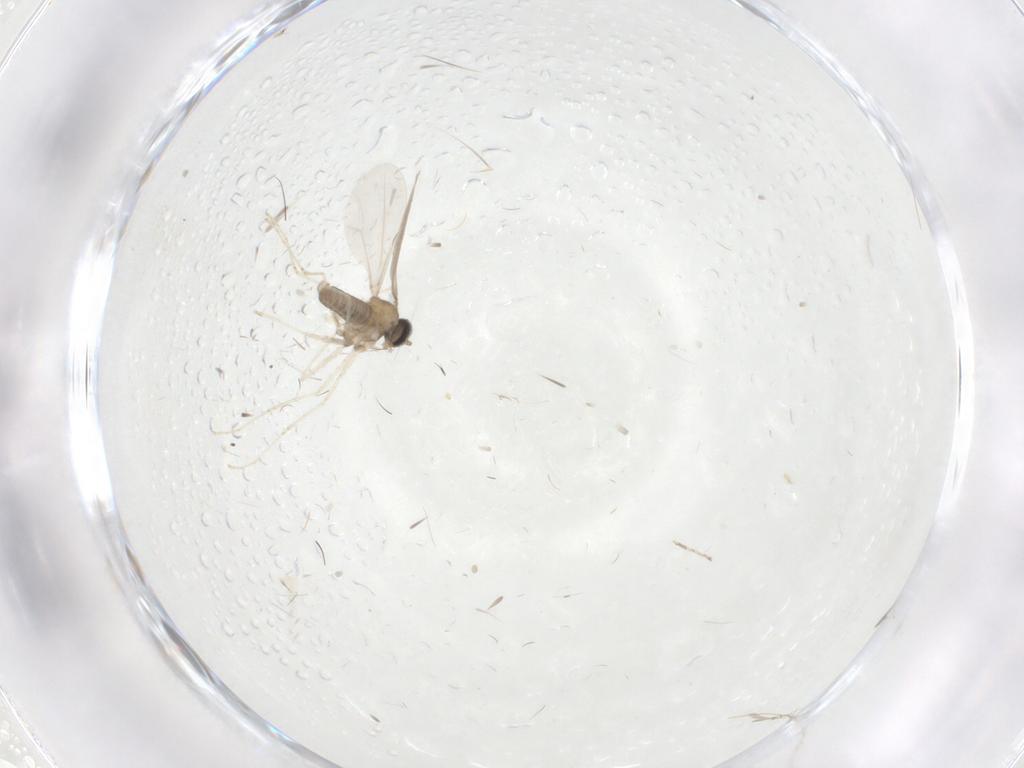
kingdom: Animalia
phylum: Arthropoda
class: Insecta
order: Diptera
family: Cecidomyiidae
